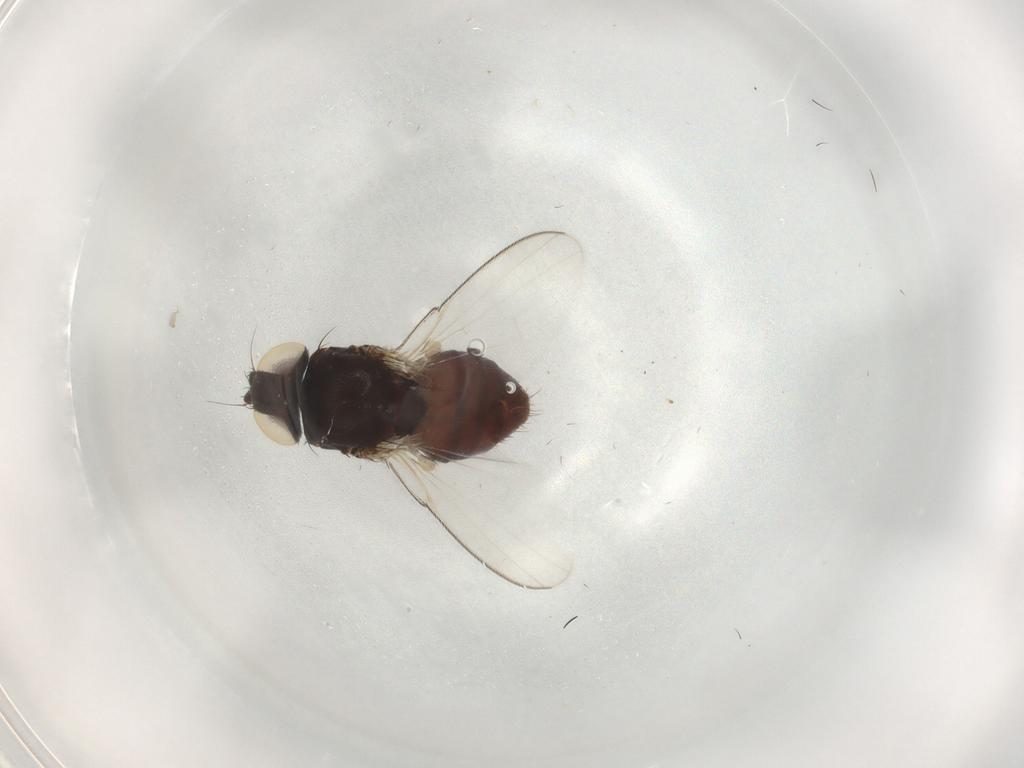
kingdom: Animalia
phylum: Arthropoda
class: Insecta
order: Diptera
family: Milichiidae
